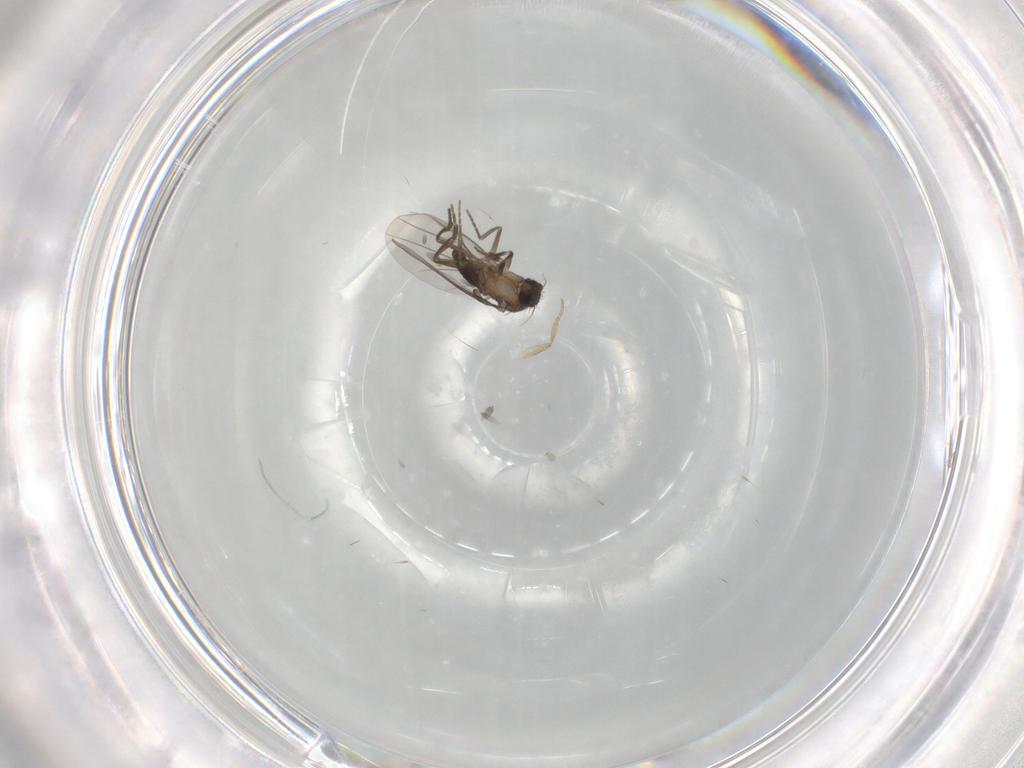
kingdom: Animalia
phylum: Arthropoda
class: Insecta
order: Diptera
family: Phoridae
